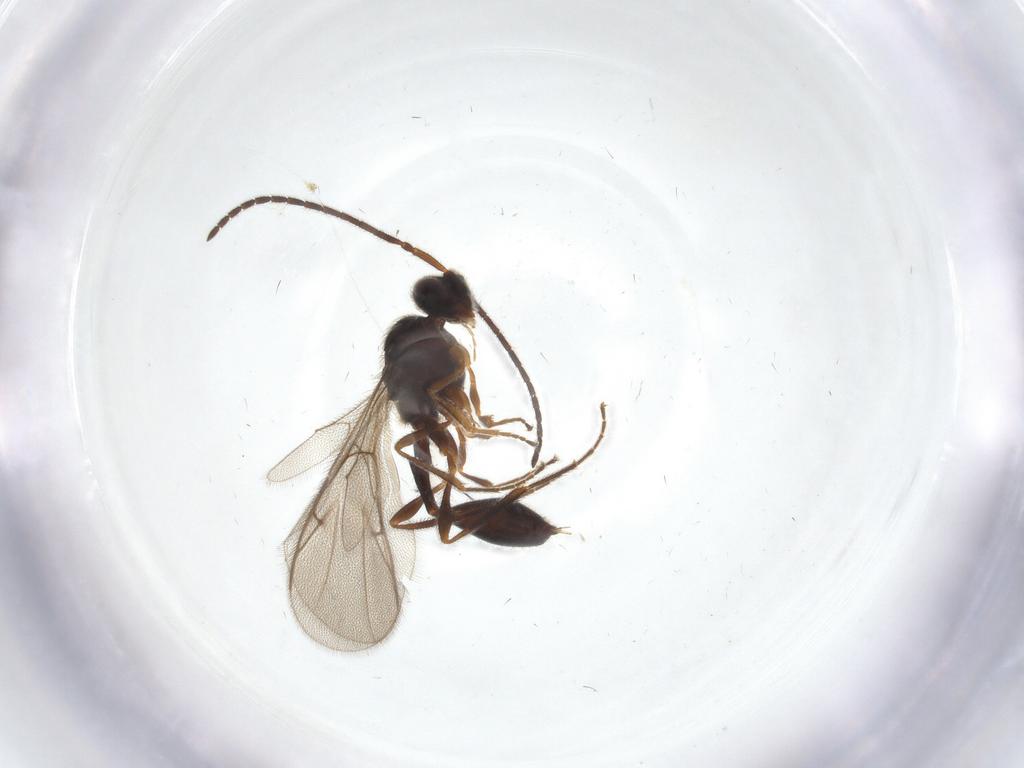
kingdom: Animalia
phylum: Arthropoda
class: Insecta
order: Hymenoptera
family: Diapriidae
